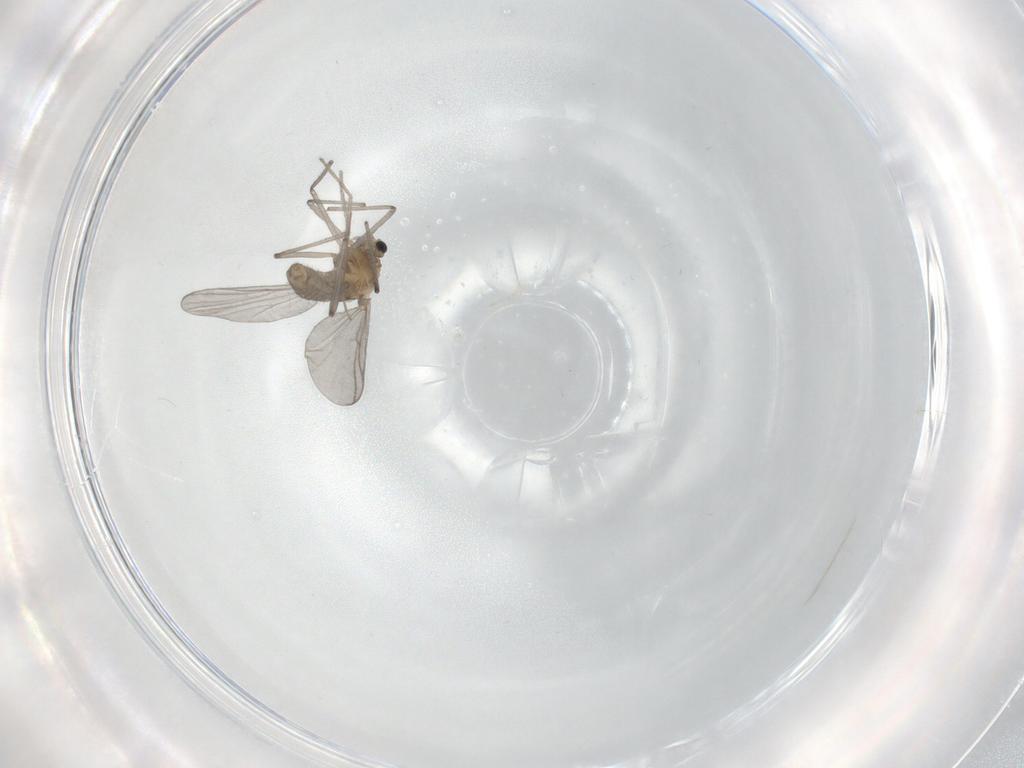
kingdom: Animalia
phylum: Arthropoda
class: Insecta
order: Diptera
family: Chironomidae
